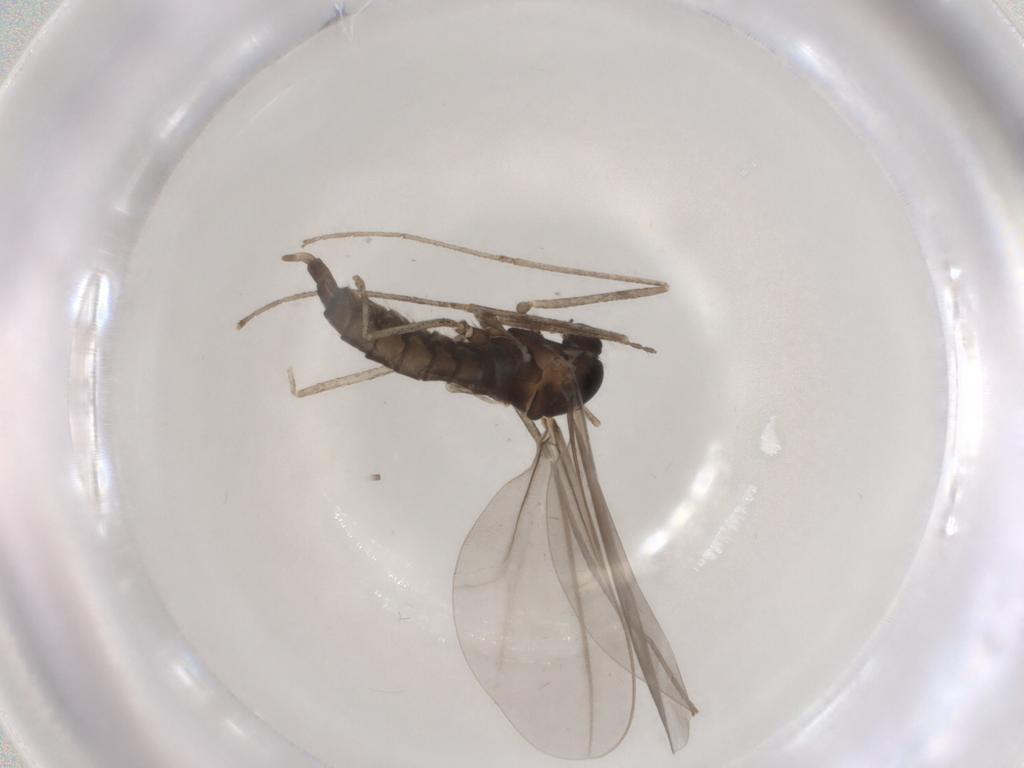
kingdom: Animalia
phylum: Arthropoda
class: Insecta
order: Diptera
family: Cecidomyiidae
